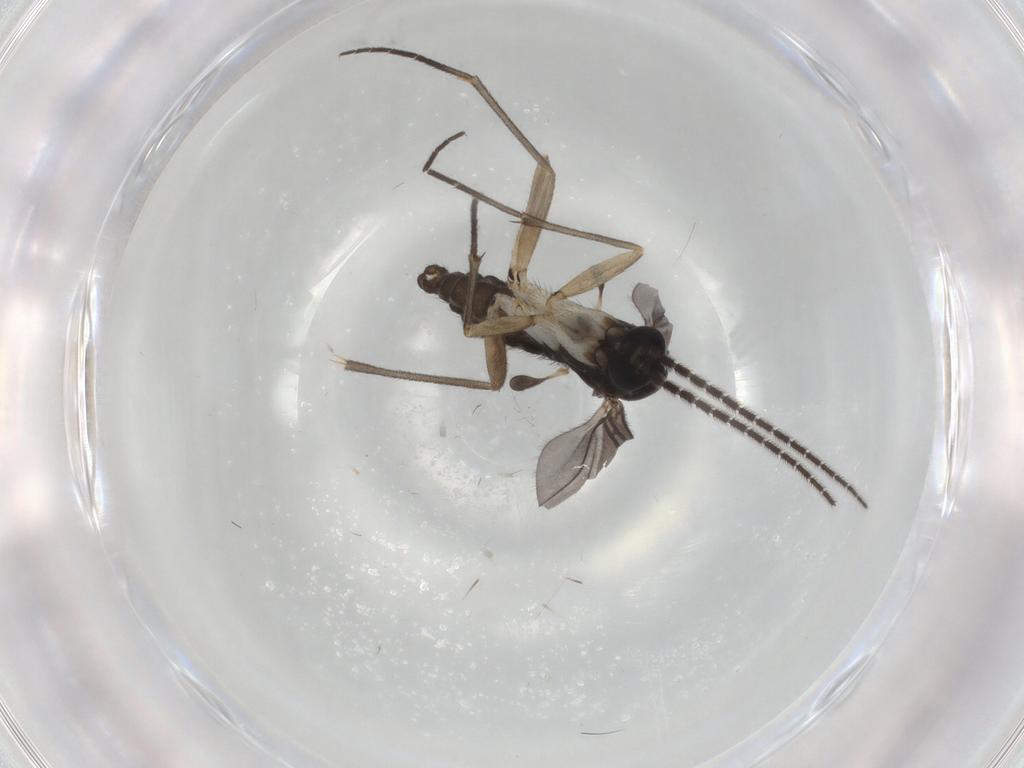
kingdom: Animalia
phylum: Arthropoda
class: Insecta
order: Diptera
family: Sciaridae
